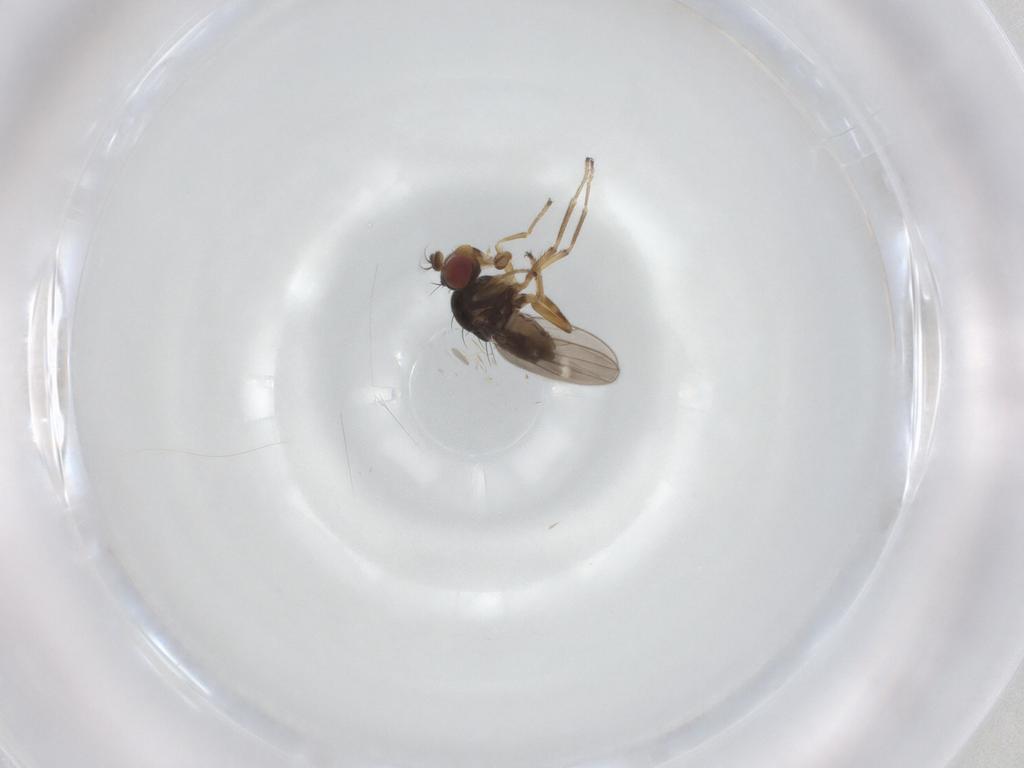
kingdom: Animalia
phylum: Arthropoda
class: Insecta
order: Diptera
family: Ephydridae
